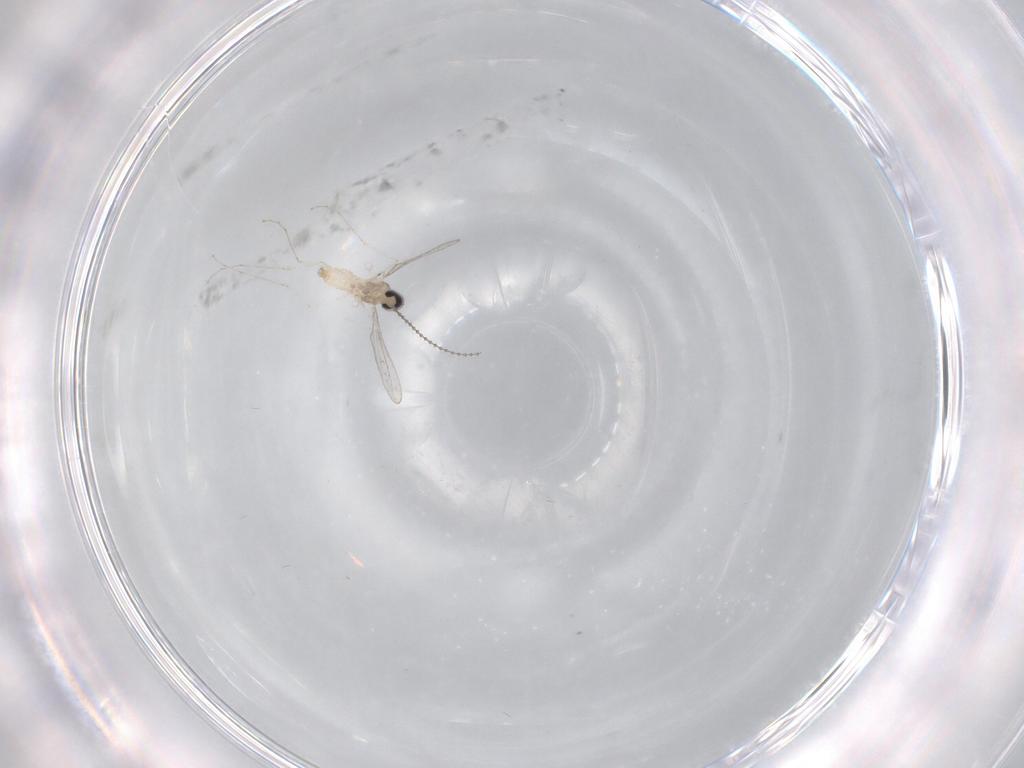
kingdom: Animalia
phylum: Arthropoda
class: Insecta
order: Diptera
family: Cecidomyiidae
